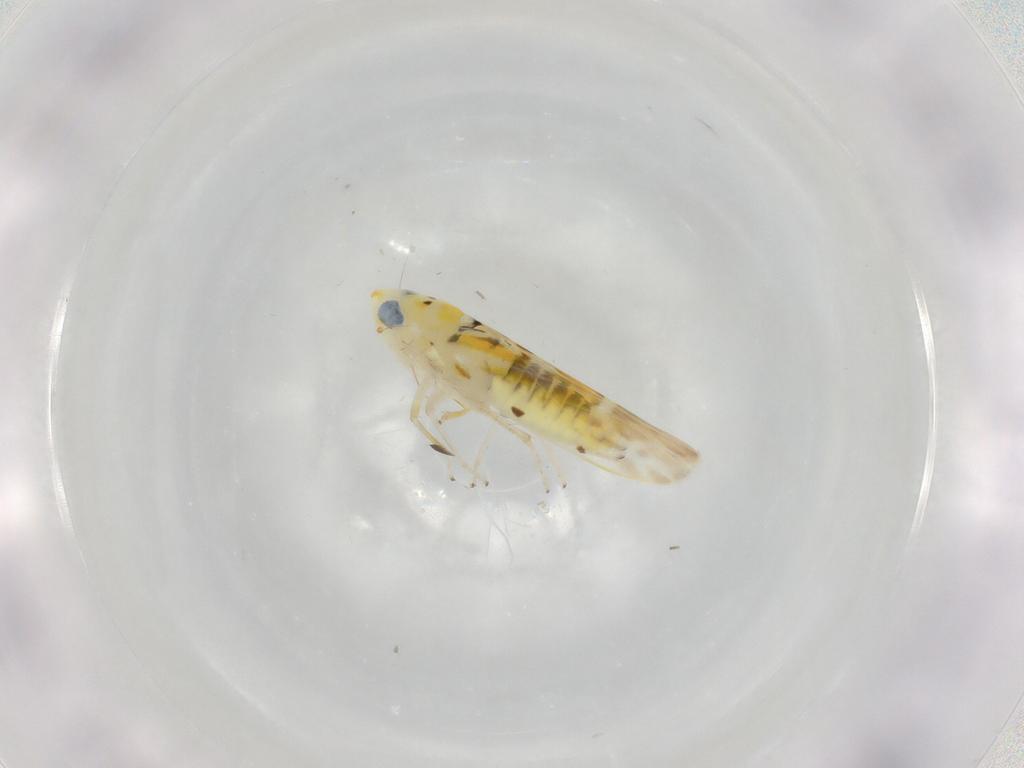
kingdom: Animalia
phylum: Arthropoda
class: Insecta
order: Hemiptera
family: Cicadellidae
